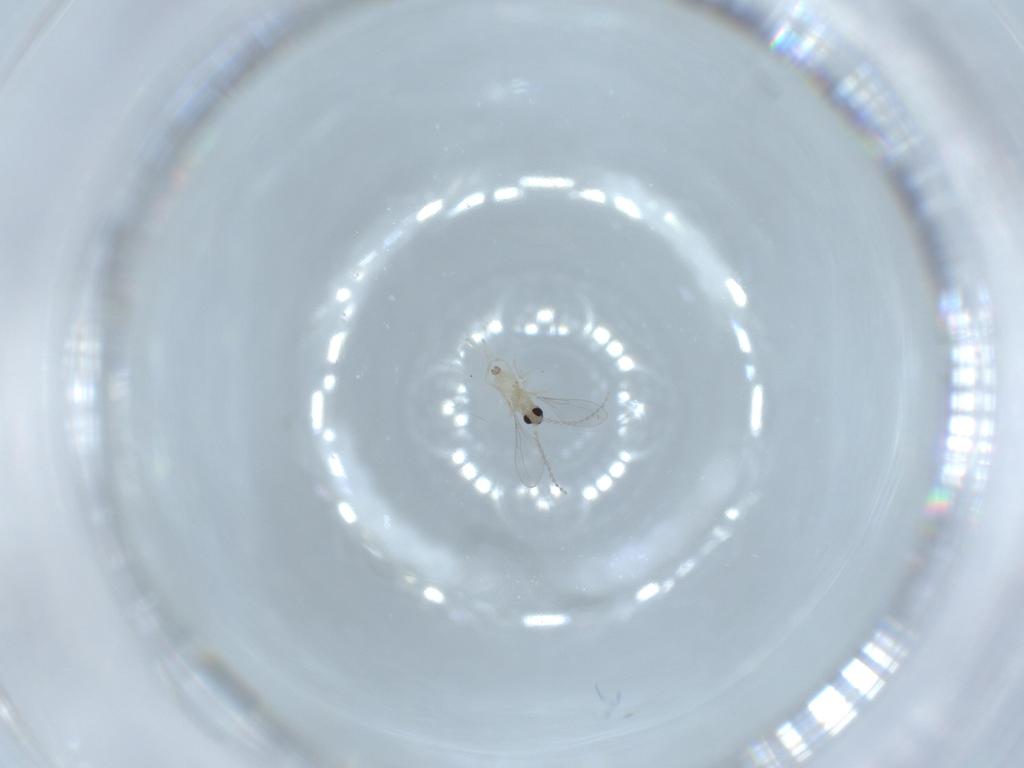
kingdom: Animalia
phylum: Arthropoda
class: Insecta
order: Diptera
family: Cecidomyiidae
